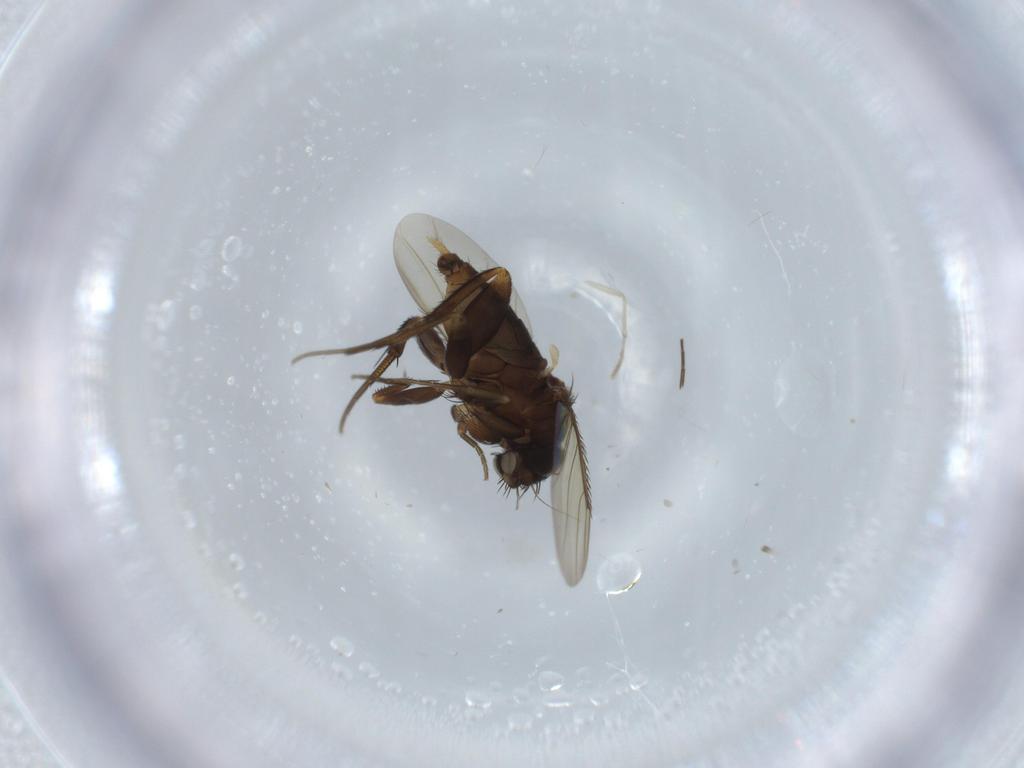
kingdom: Animalia
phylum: Arthropoda
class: Insecta
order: Diptera
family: Phoridae
